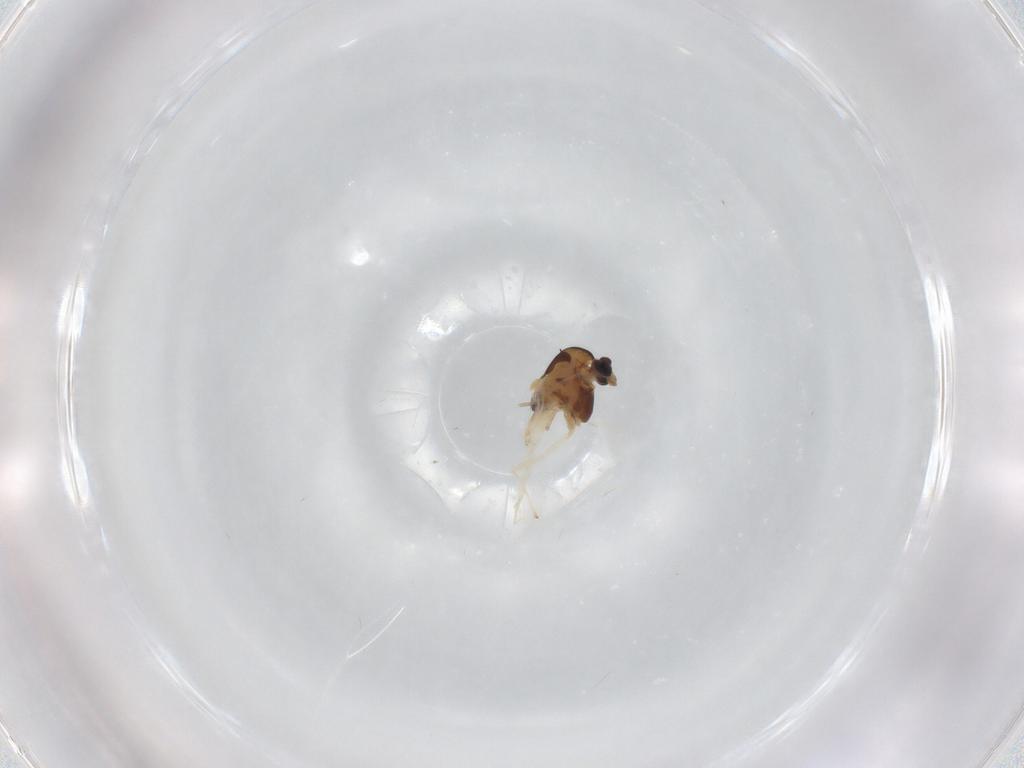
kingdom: Animalia
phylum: Arthropoda
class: Insecta
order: Diptera
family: Chironomidae
